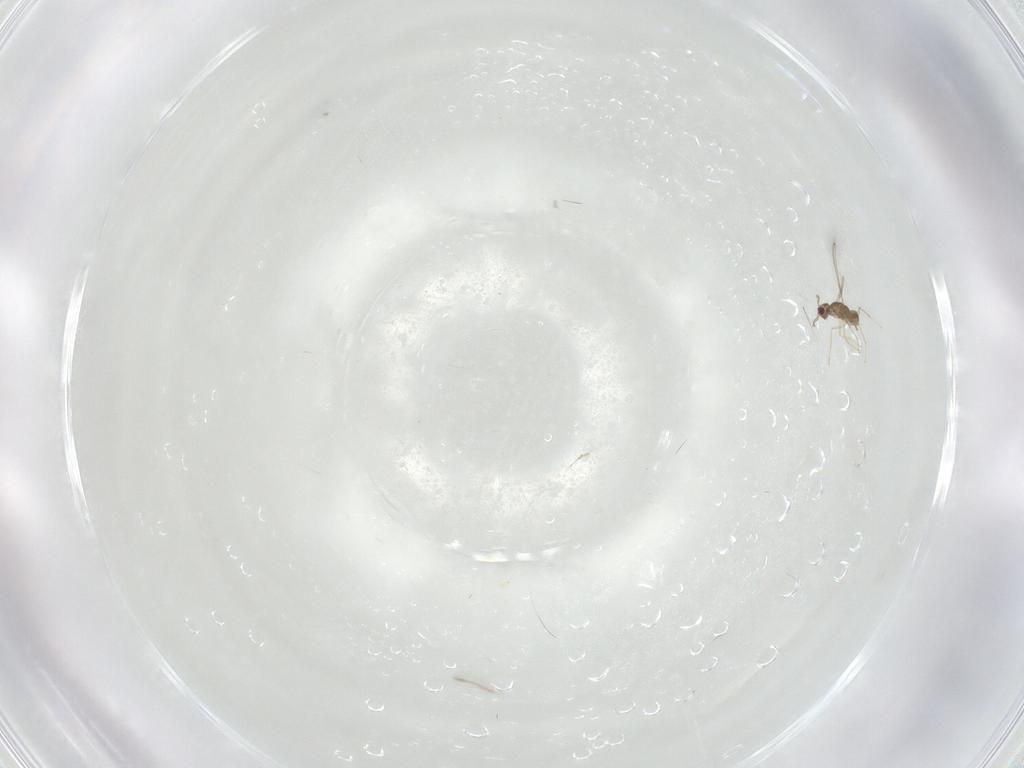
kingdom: Animalia
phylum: Arthropoda
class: Insecta
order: Hymenoptera
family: Mymaridae
